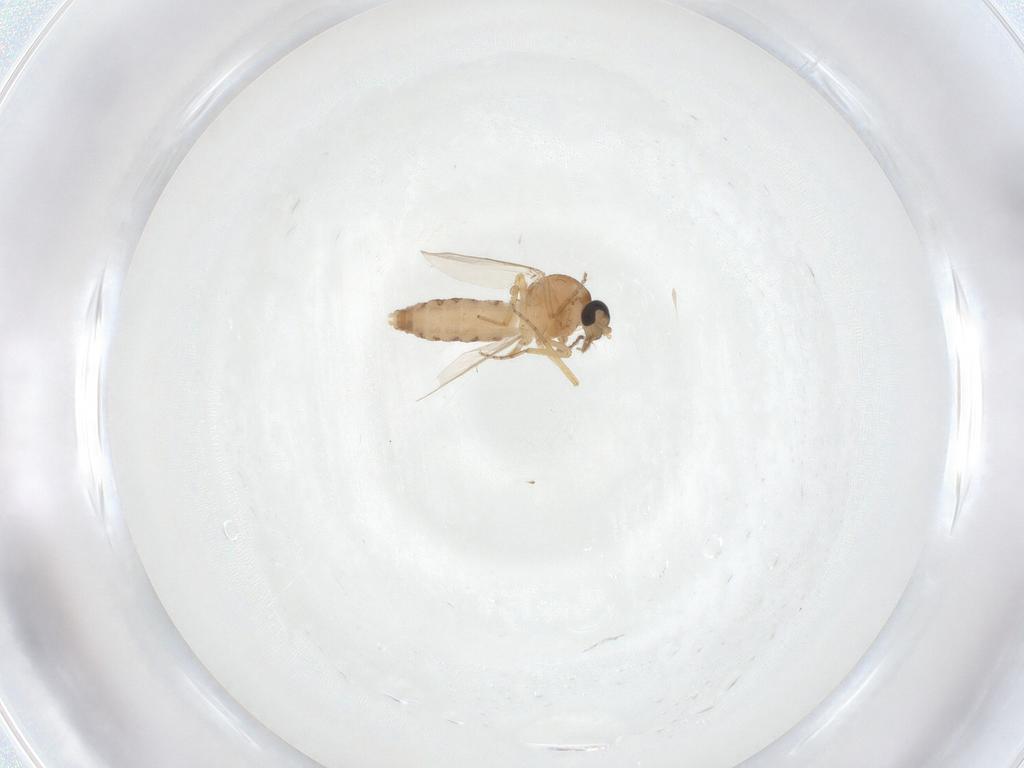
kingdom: Animalia
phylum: Arthropoda
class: Insecta
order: Diptera
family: Ceratopogonidae
